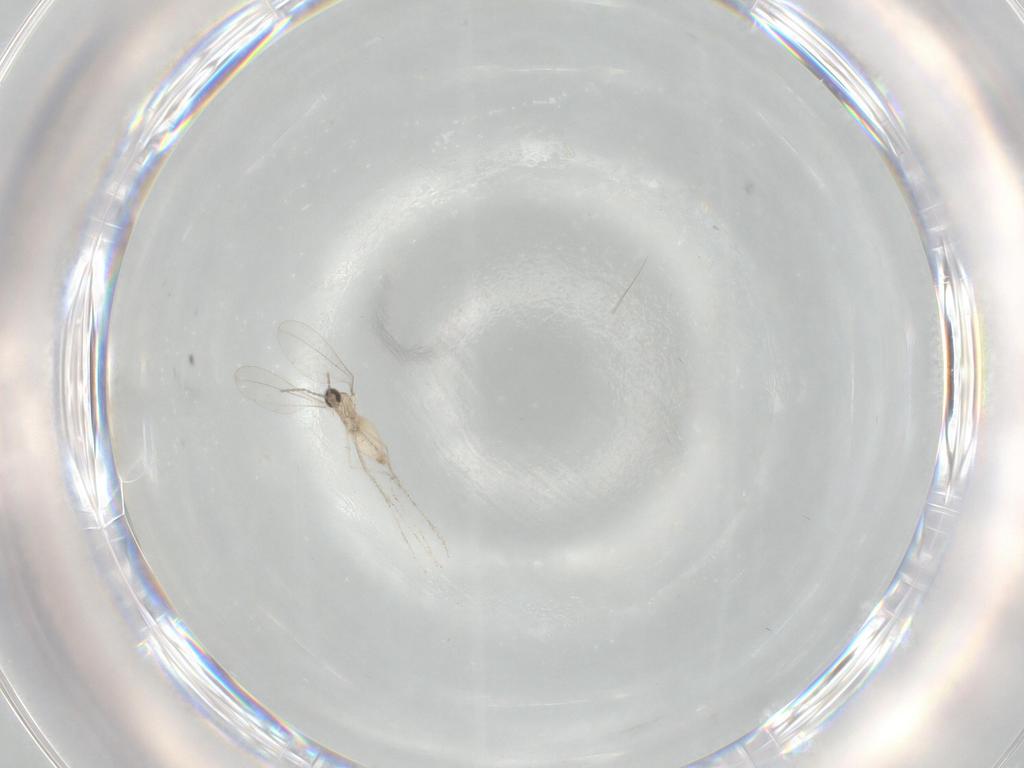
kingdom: Animalia
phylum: Arthropoda
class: Insecta
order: Diptera
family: Cecidomyiidae
